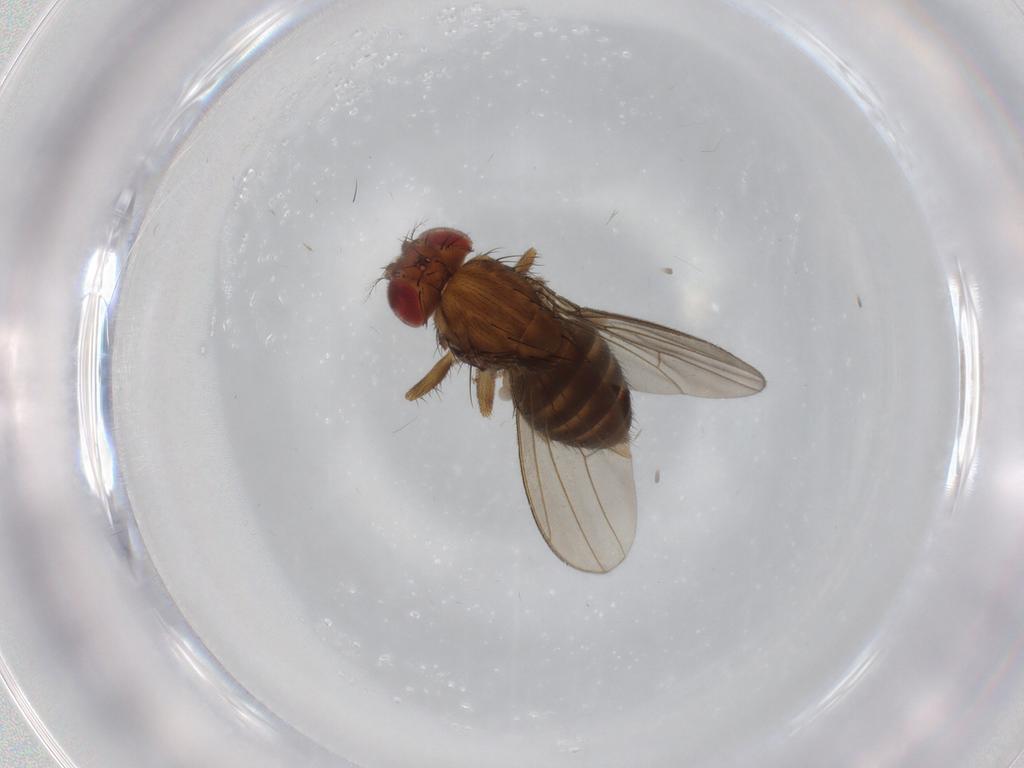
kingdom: Animalia
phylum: Arthropoda
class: Insecta
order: Diptera
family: Drosophilidae
